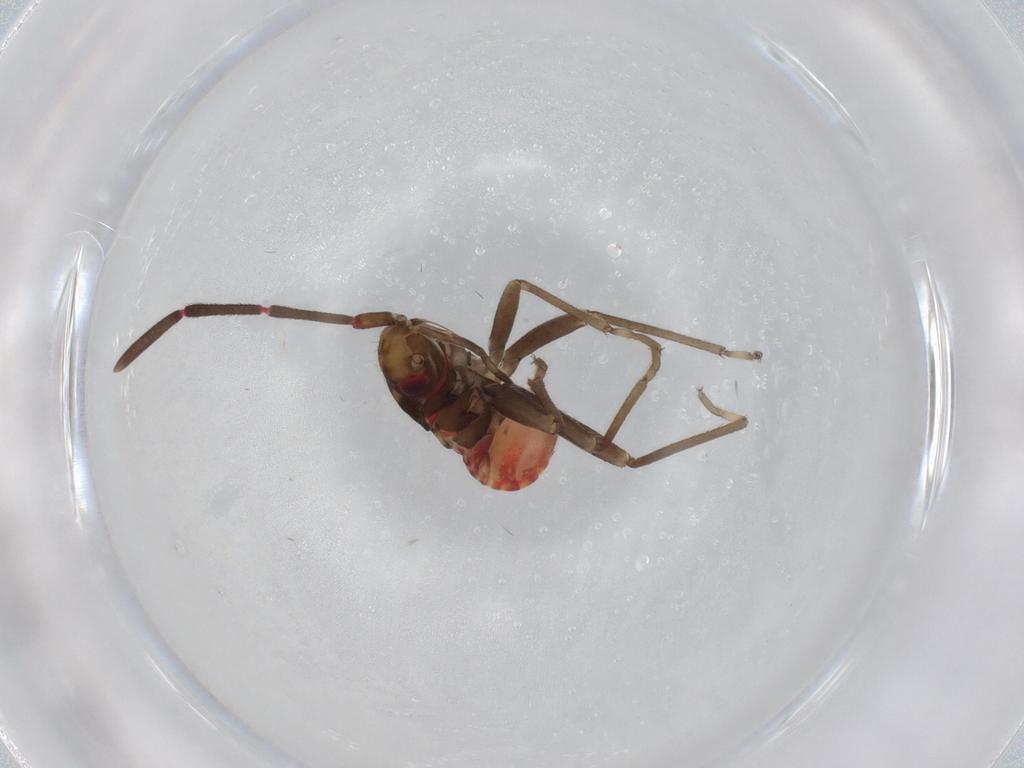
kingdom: Animalia
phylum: Arthropoda
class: Insecta
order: Hemiptera
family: Rhyparochromidae
